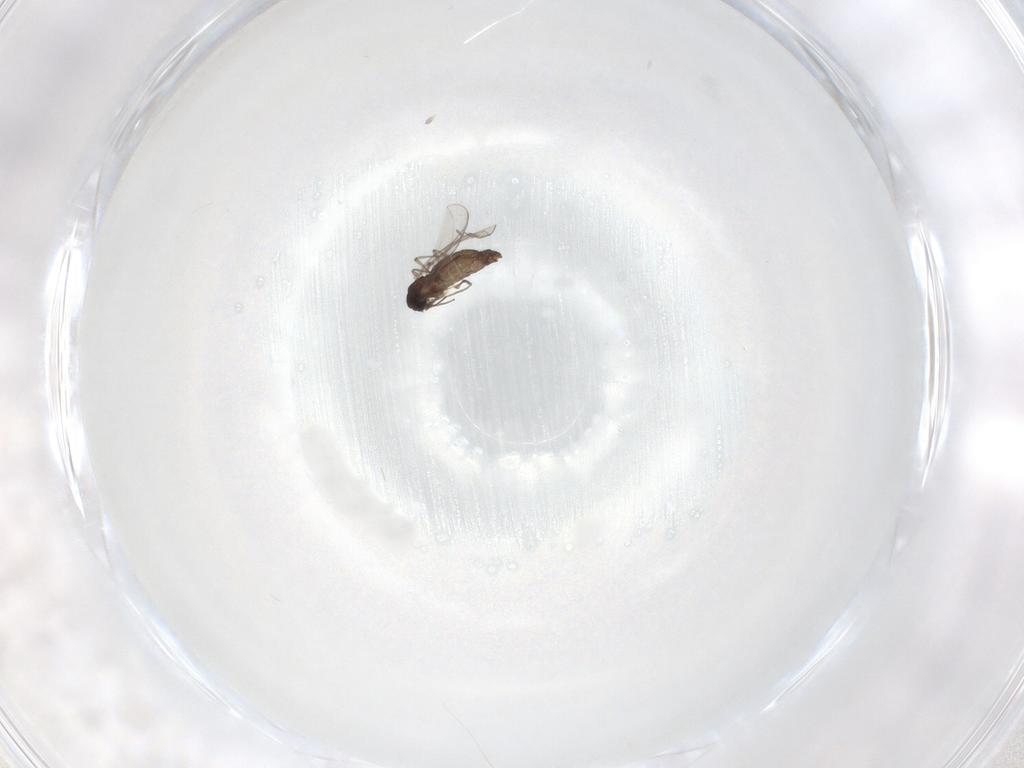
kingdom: Animalia
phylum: Arthropoda
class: Insecta
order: Diptera
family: Chironomidae
